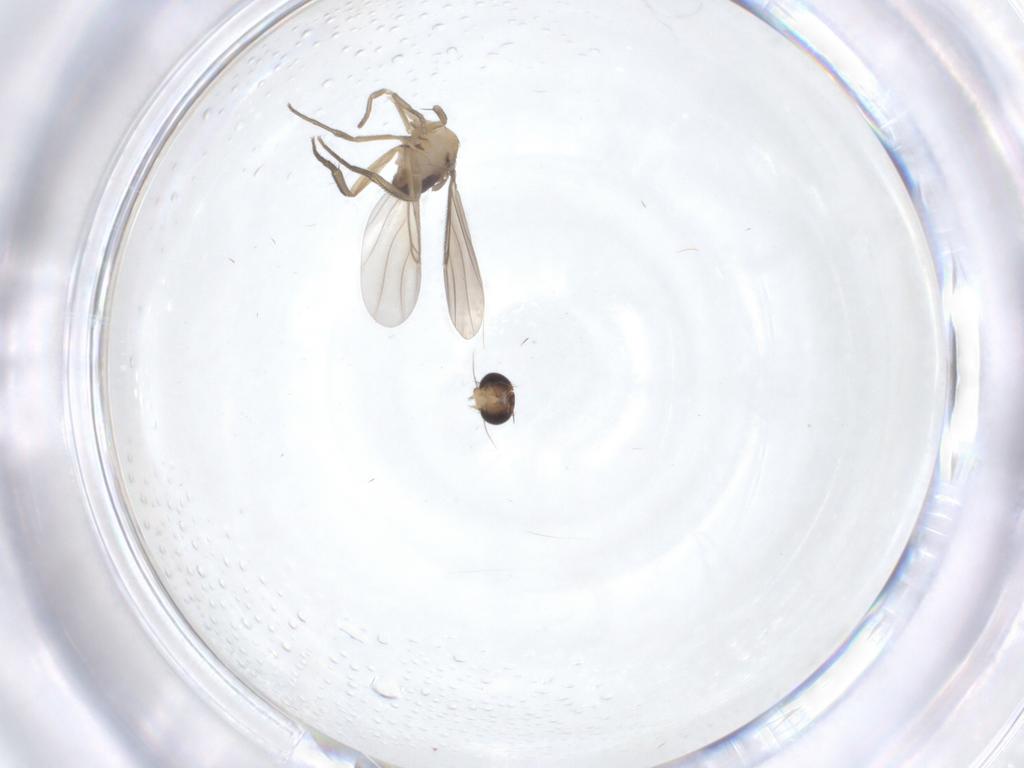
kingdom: Animalia
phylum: Arthropoda
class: Insecta
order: Diptera
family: Phoridae
